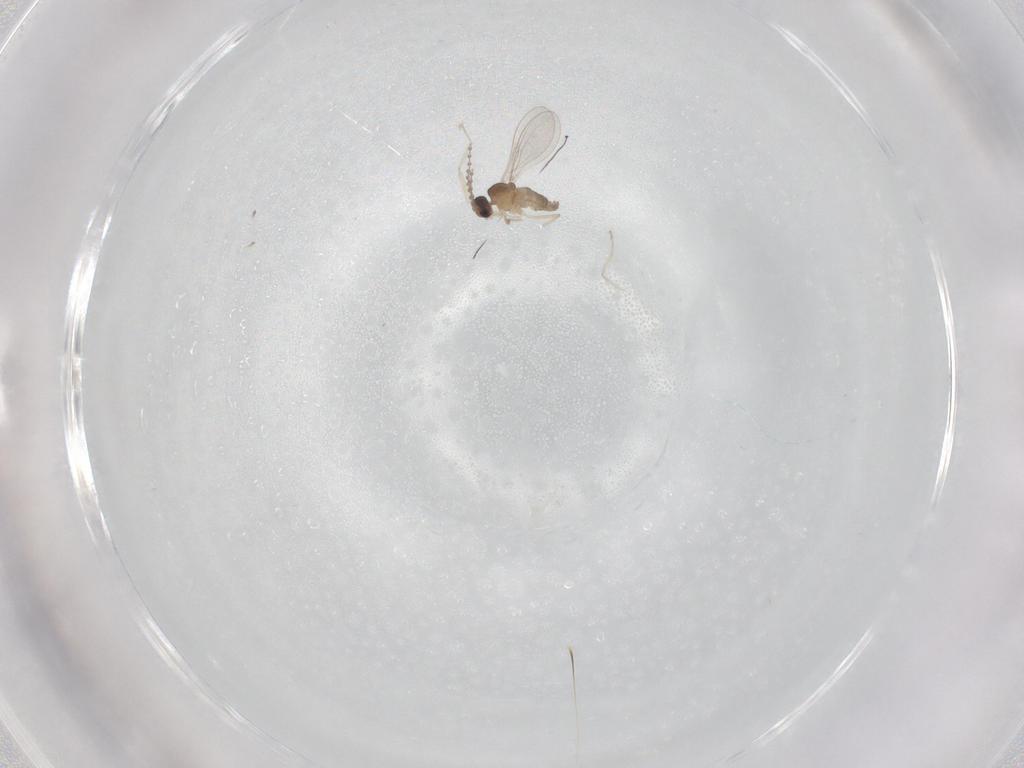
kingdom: Animalia
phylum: Arthropoda
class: Insecta
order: Diptera
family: Cecidomyiidae
